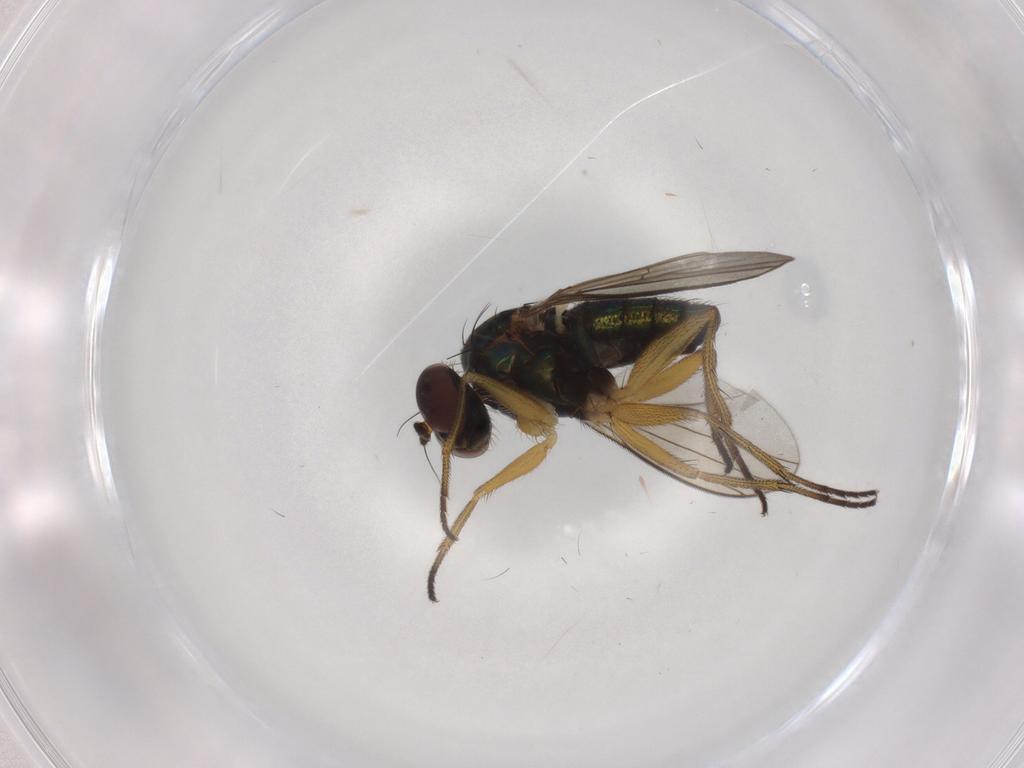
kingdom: Animalia
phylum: Arthropoda
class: Insecta
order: Diptera
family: Dolichopodidae
